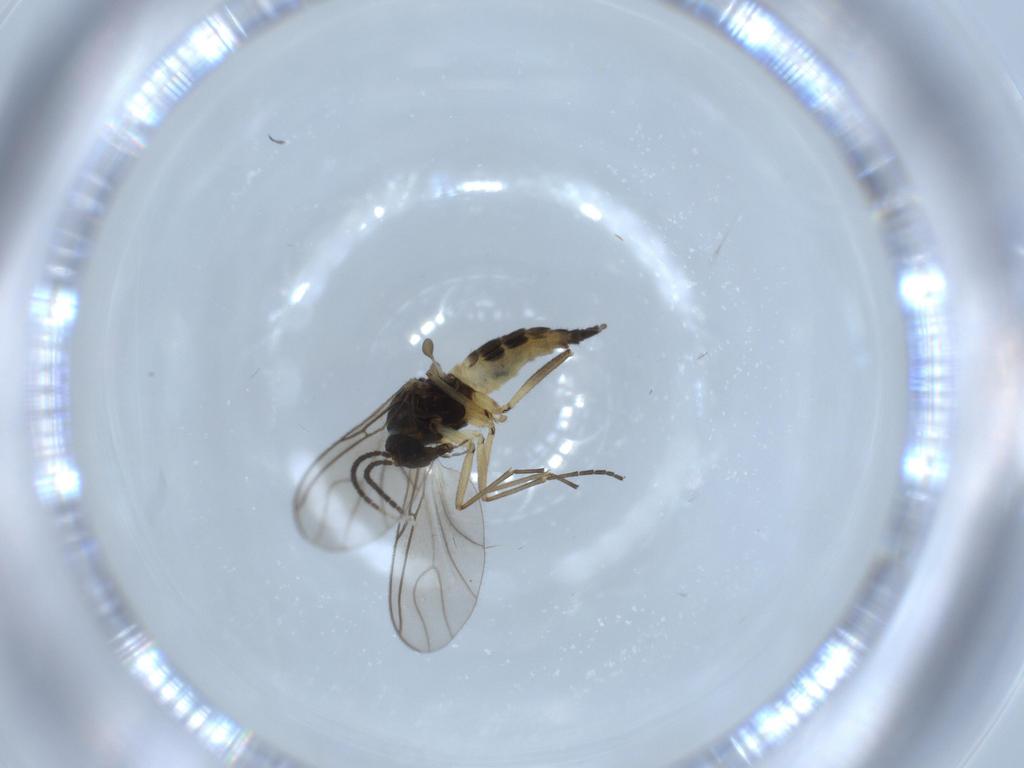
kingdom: Animalia
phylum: Arthropoda
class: Insecta
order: Diptera
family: Sciaridae
